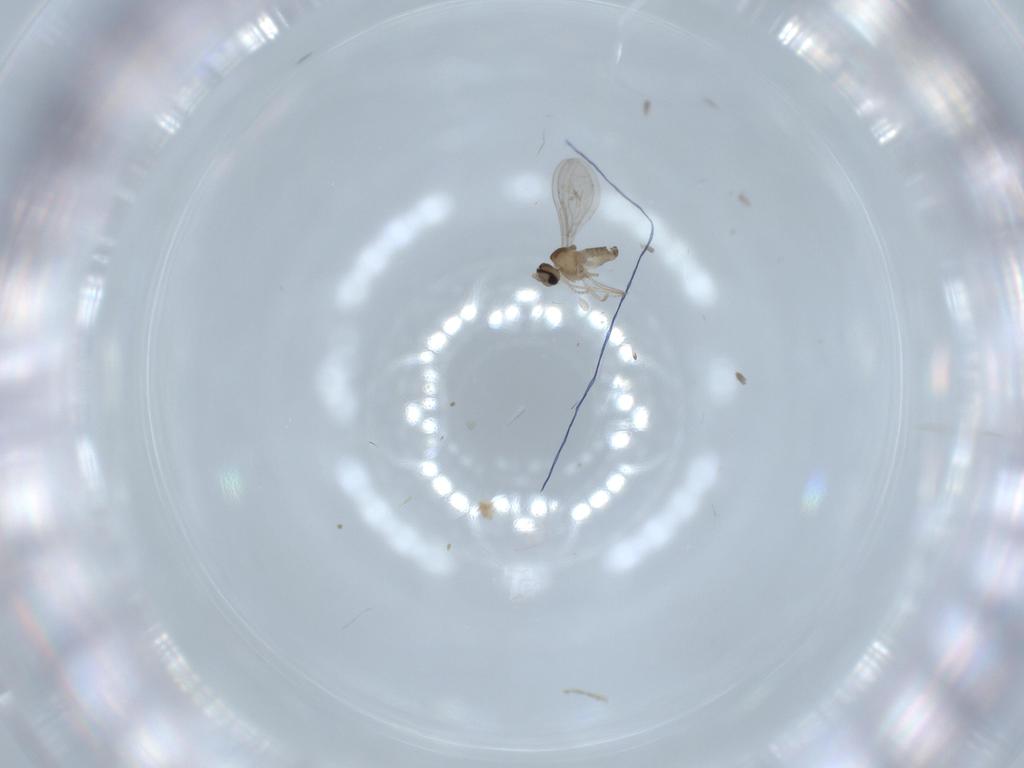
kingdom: Animalia
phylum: Arthropoda
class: Insecta
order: Diptera
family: Cecidomyiidae
